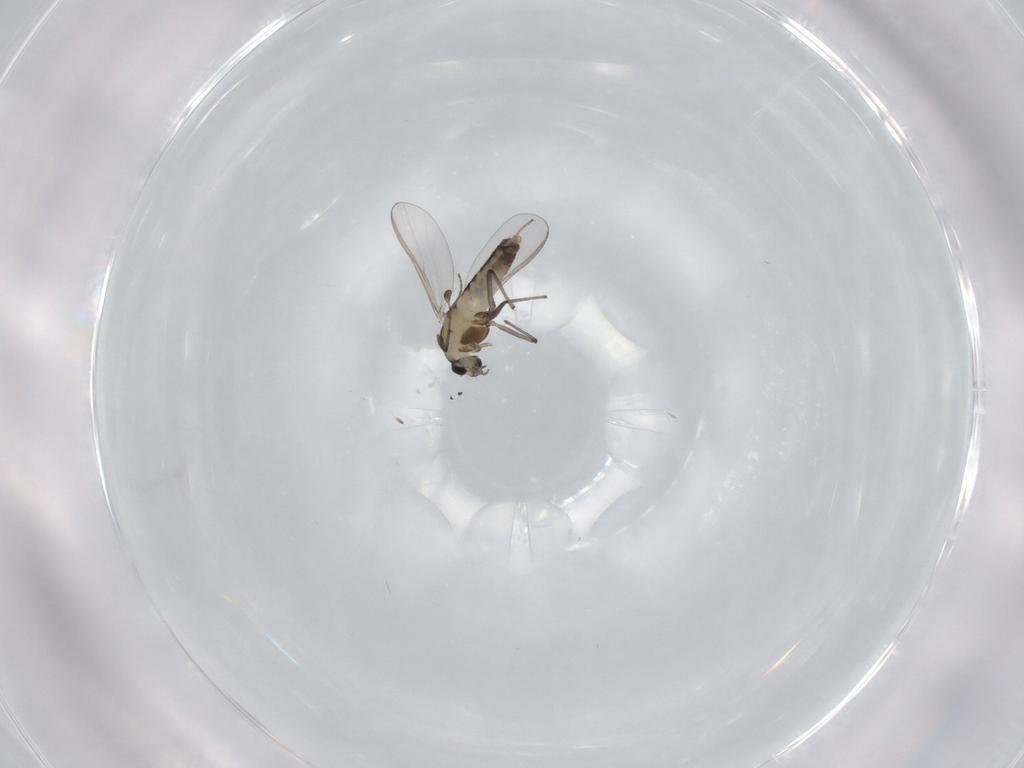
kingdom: Animalia
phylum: Arthropoda
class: Insecta
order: Diptera
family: Chironomidae
